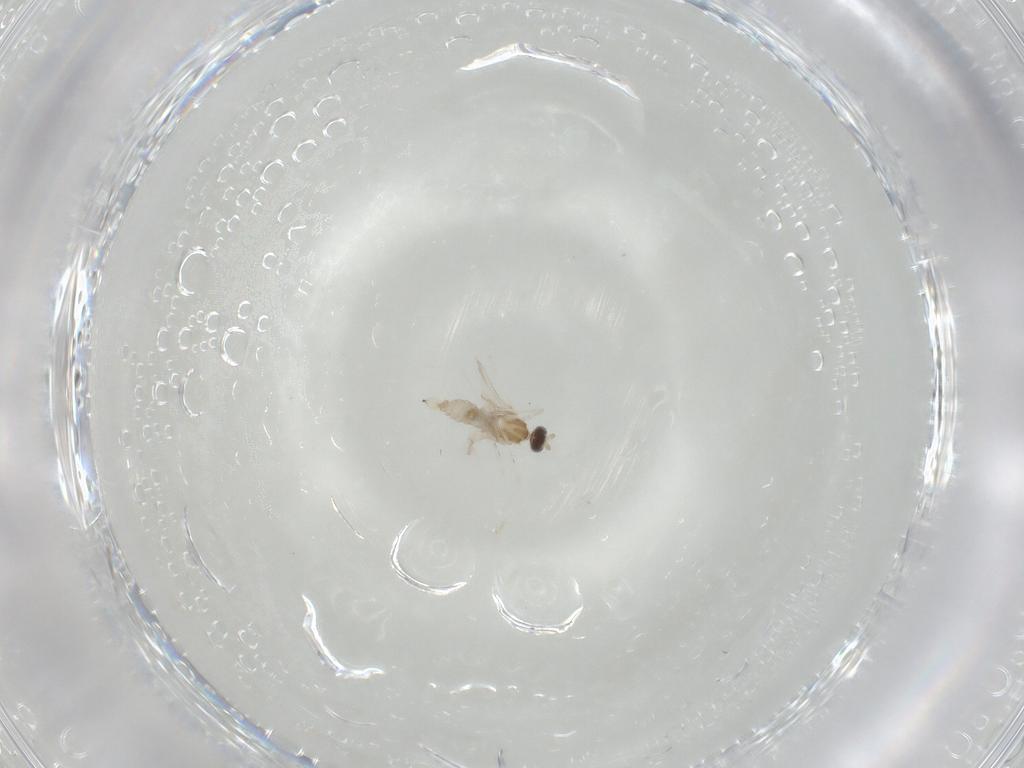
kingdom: Animalia
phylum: Arthropoda
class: Insecta
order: Diptera
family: Cecidomyiidae
